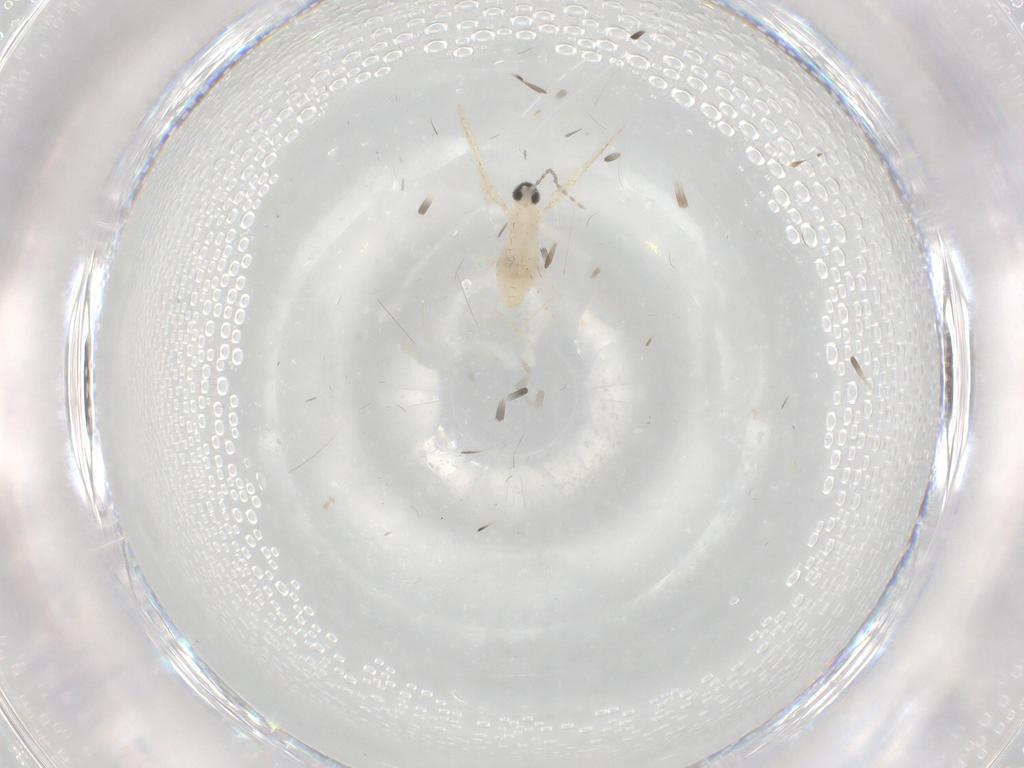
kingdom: Animalia
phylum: Arthropoda
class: Insecta
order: Diptera
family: Cecidomyiidae
